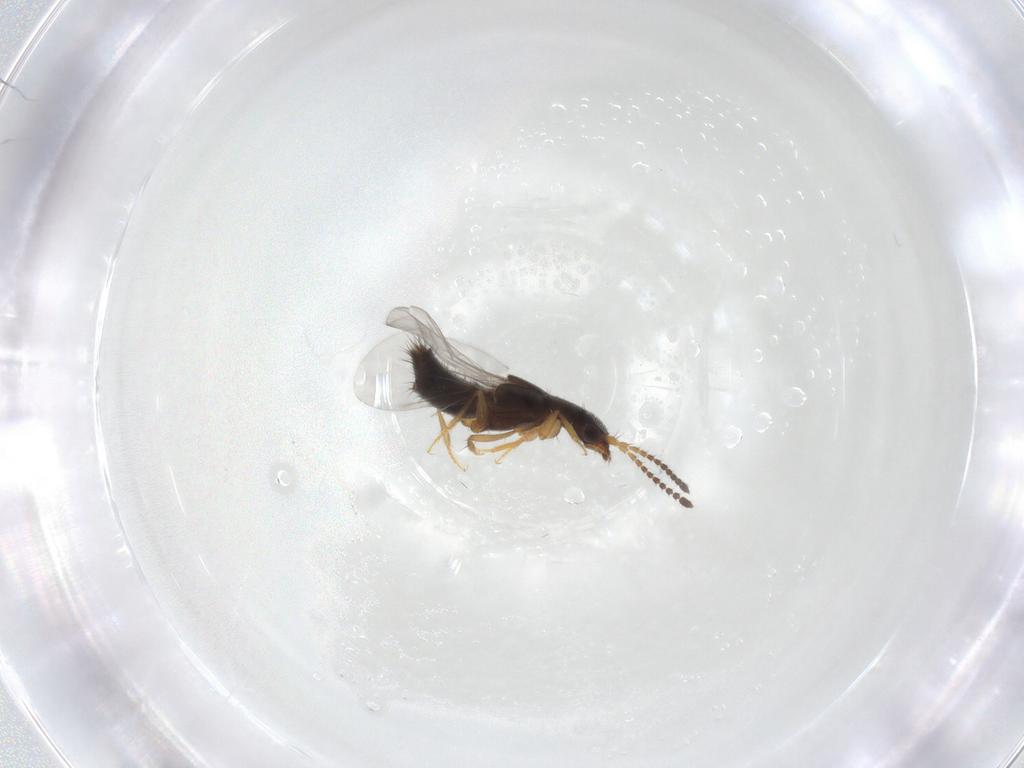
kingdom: Animalia
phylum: Arthropoda
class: Insecta
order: Coleoptera
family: Staphylinidae
